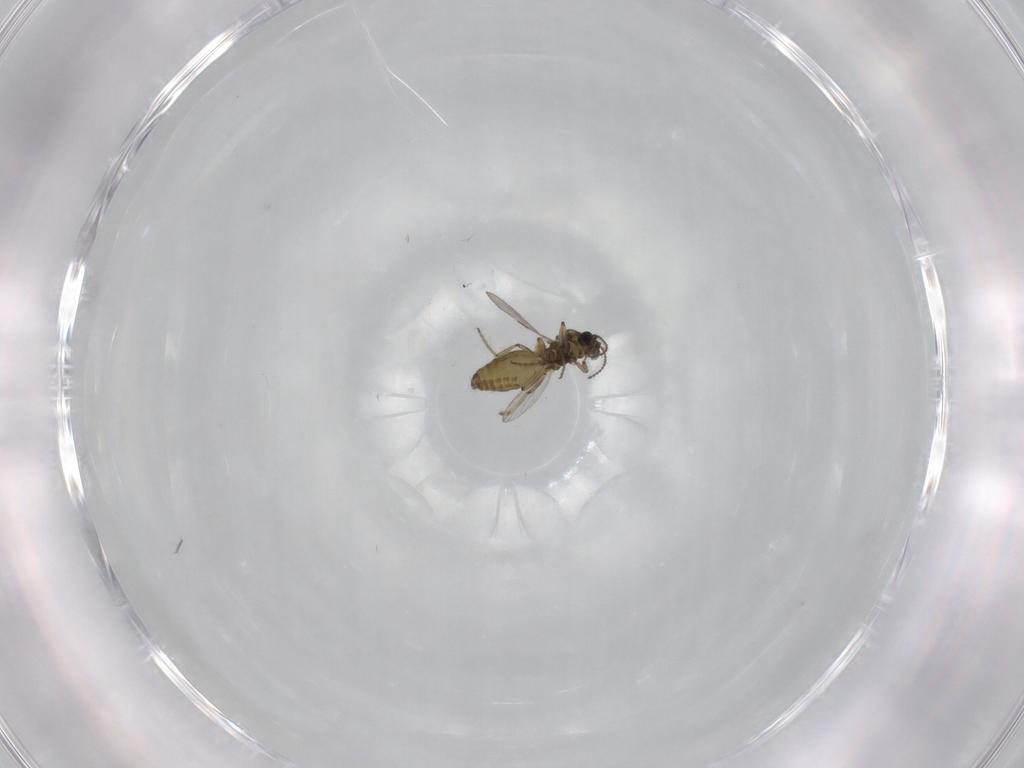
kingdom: Animalia
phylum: Arthropoda
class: Insecta
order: Diptera
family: Ceratopogonidae
